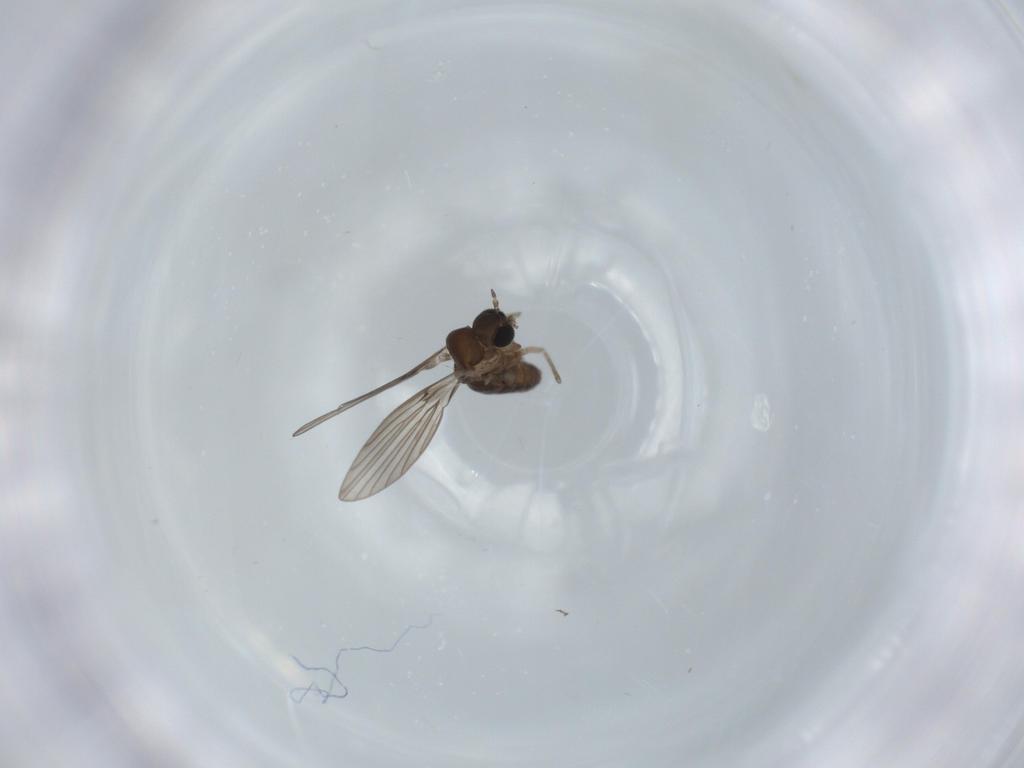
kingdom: Animalia
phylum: Arthropoda
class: Insecta
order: Diptera
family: Psychodidae
